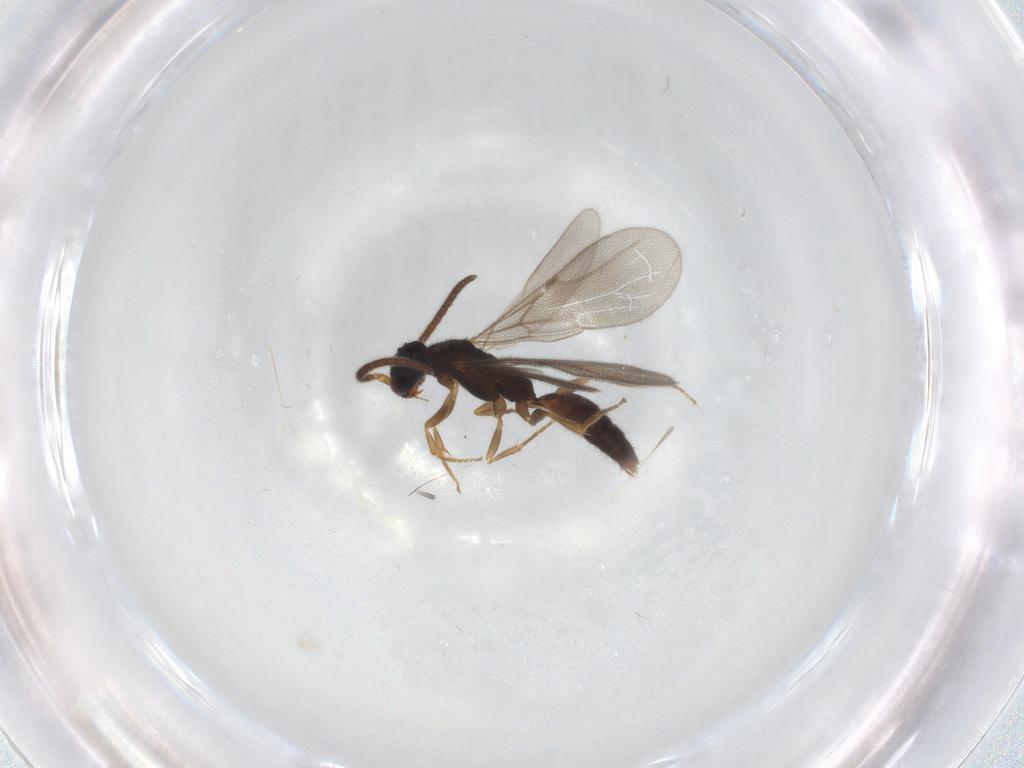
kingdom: Animalia
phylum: Arthropoda
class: Insecta
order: Hymenoptera
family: Bethylidae
